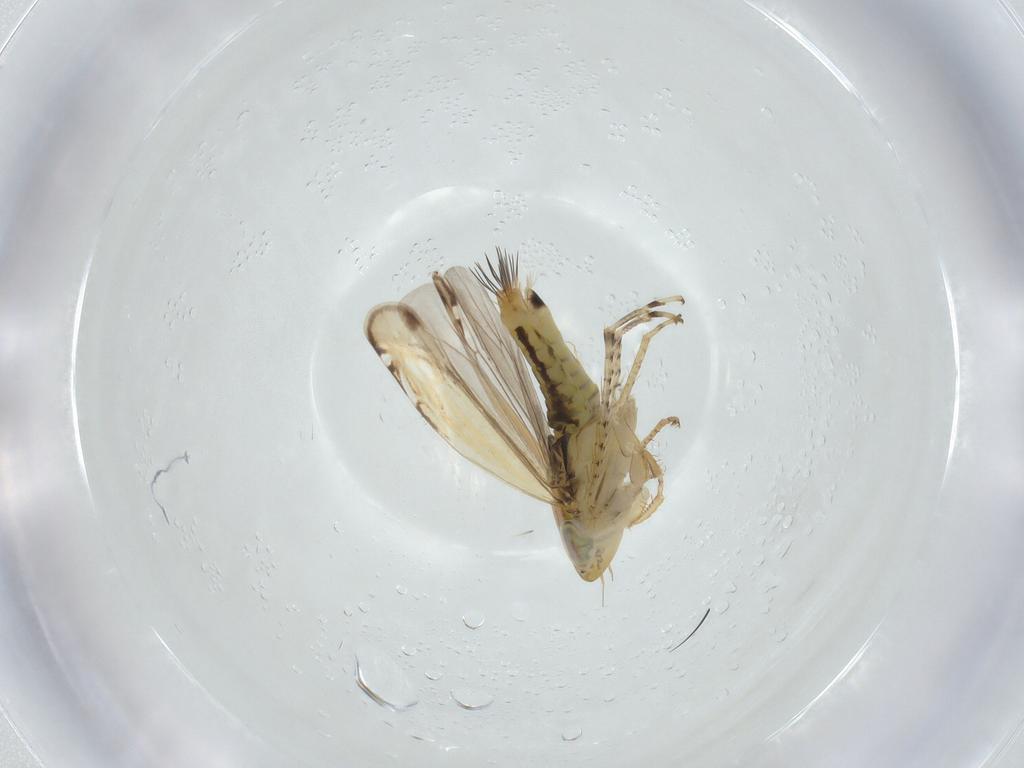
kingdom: Animalia
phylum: Arthropoda
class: Insecta
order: Hemiptera
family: Cicadellidae
